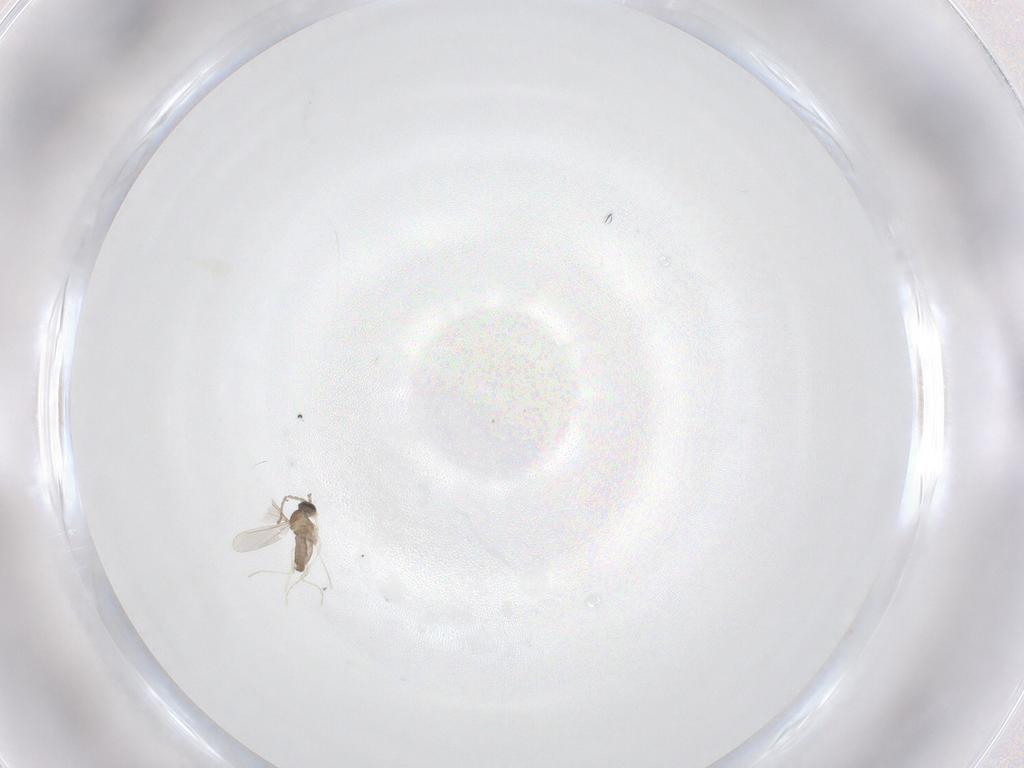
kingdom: Animalia
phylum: Arthropoda
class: Insecta
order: Diptera
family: Cecidomyiidae
